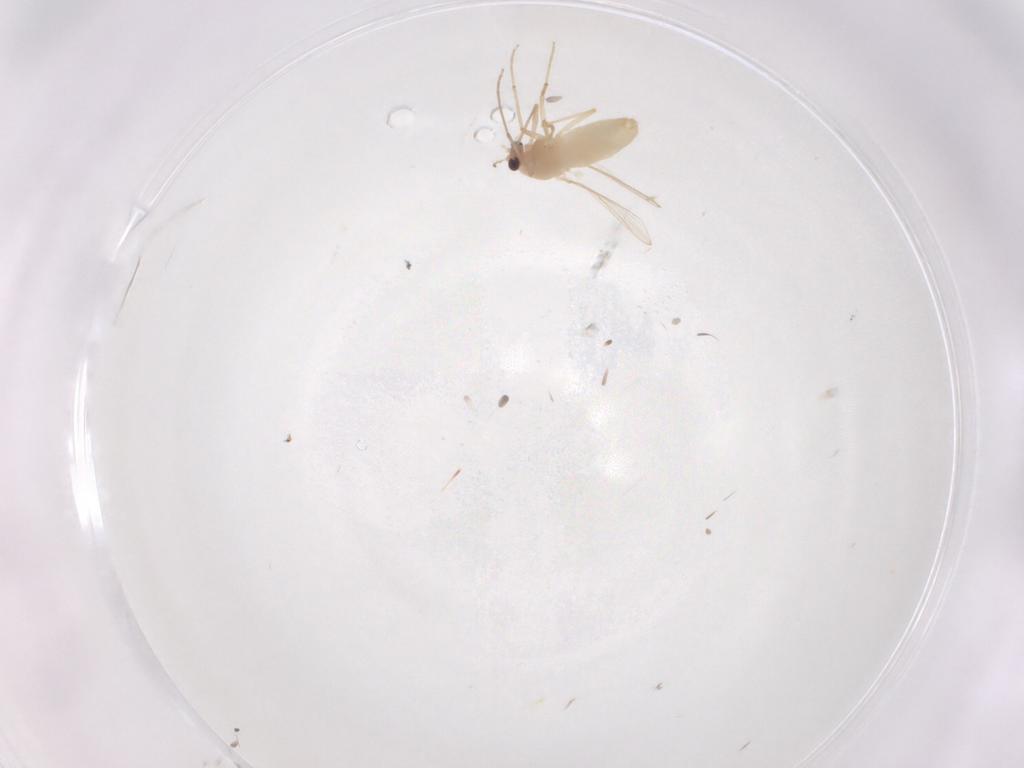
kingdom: Animalia
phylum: Arthropoda
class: Insecta
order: Diptera
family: Chironomidae
